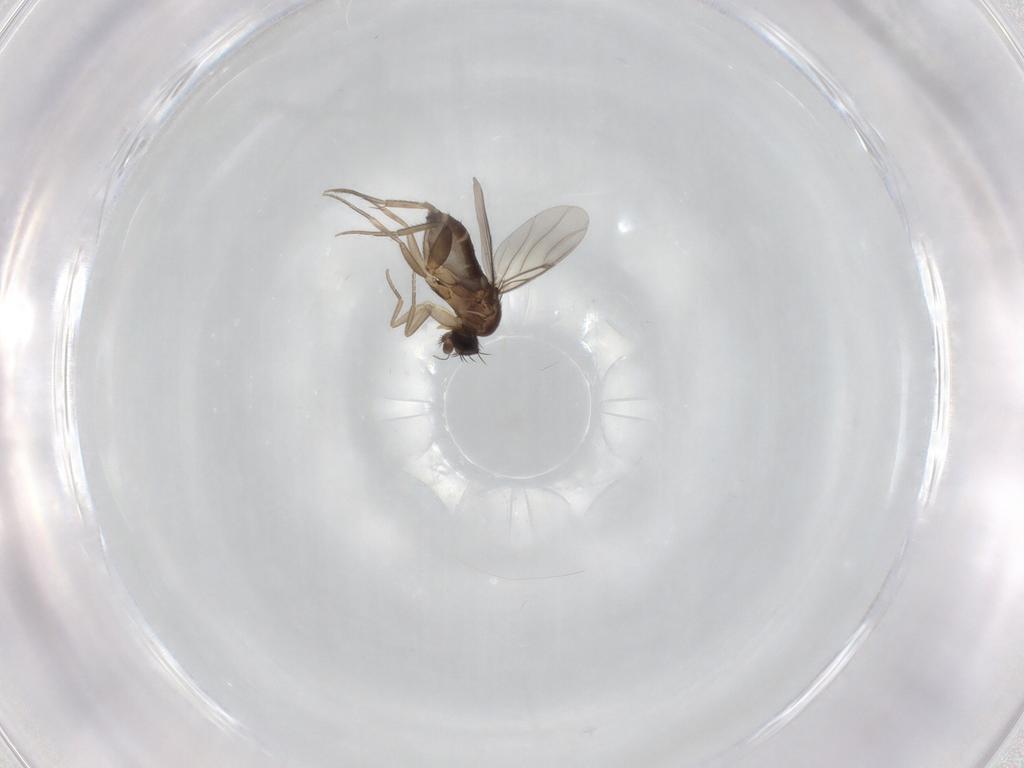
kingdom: Animalia
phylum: Arthropoda
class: Insecta
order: Diptera
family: Phoridae
